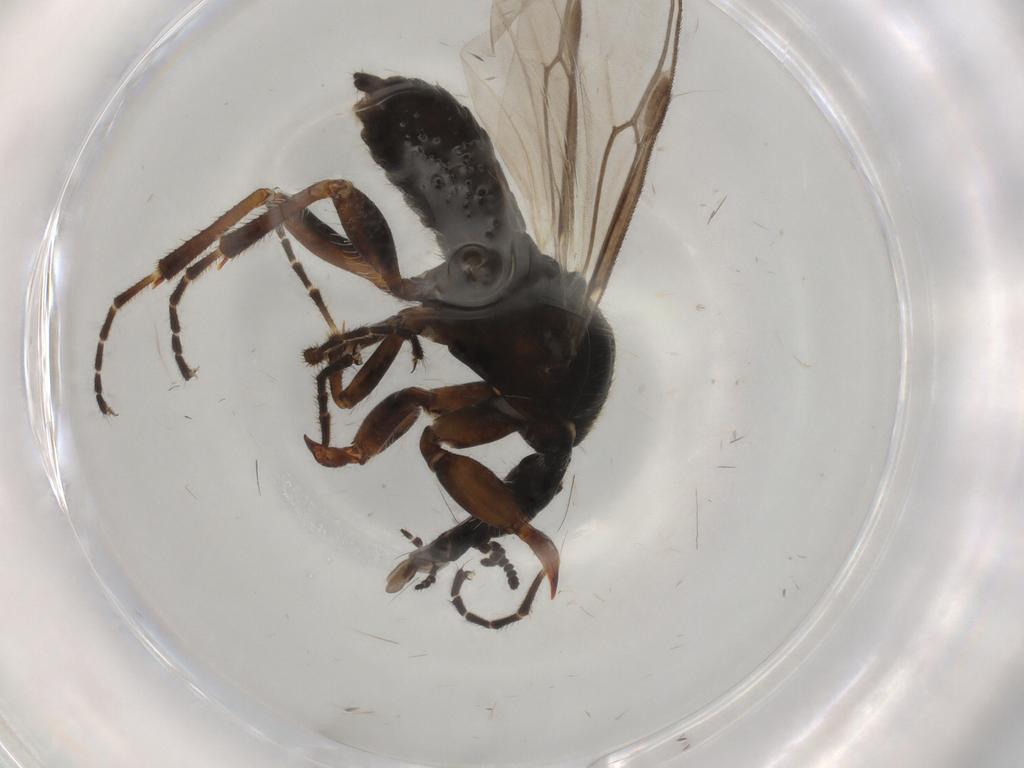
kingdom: Animalia
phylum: Arthropoda
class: Insecta
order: Diptera
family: Bibionidae
